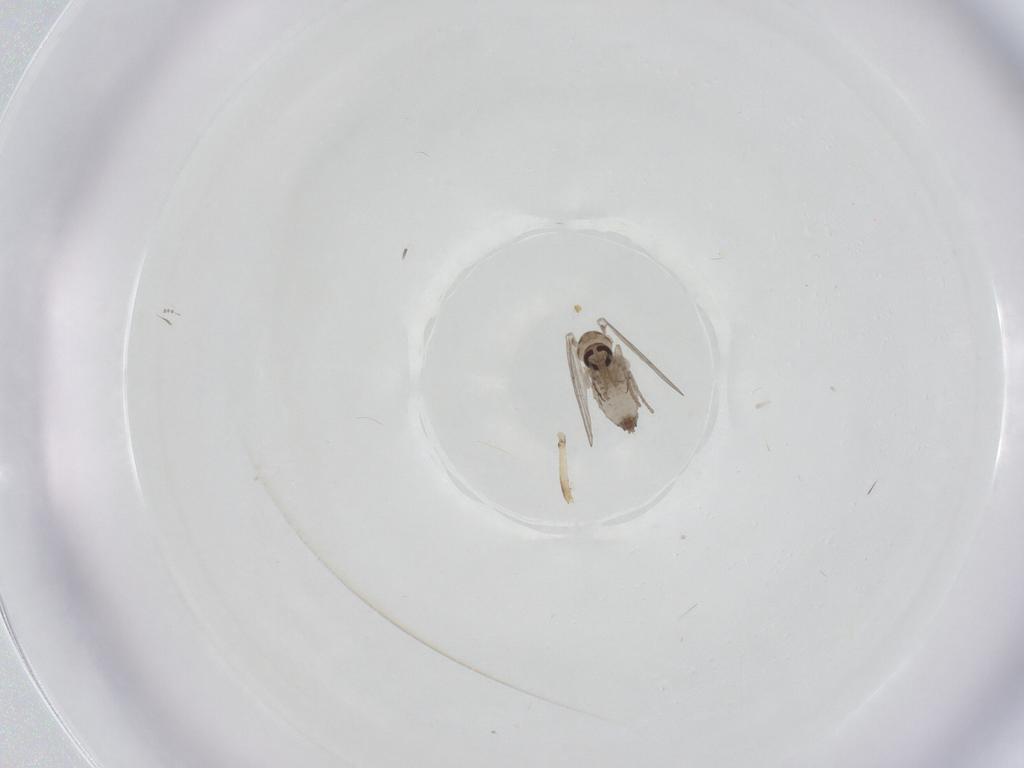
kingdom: Animalia
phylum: Arthropoda
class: Insecta
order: Diptera
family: Psychodidae
